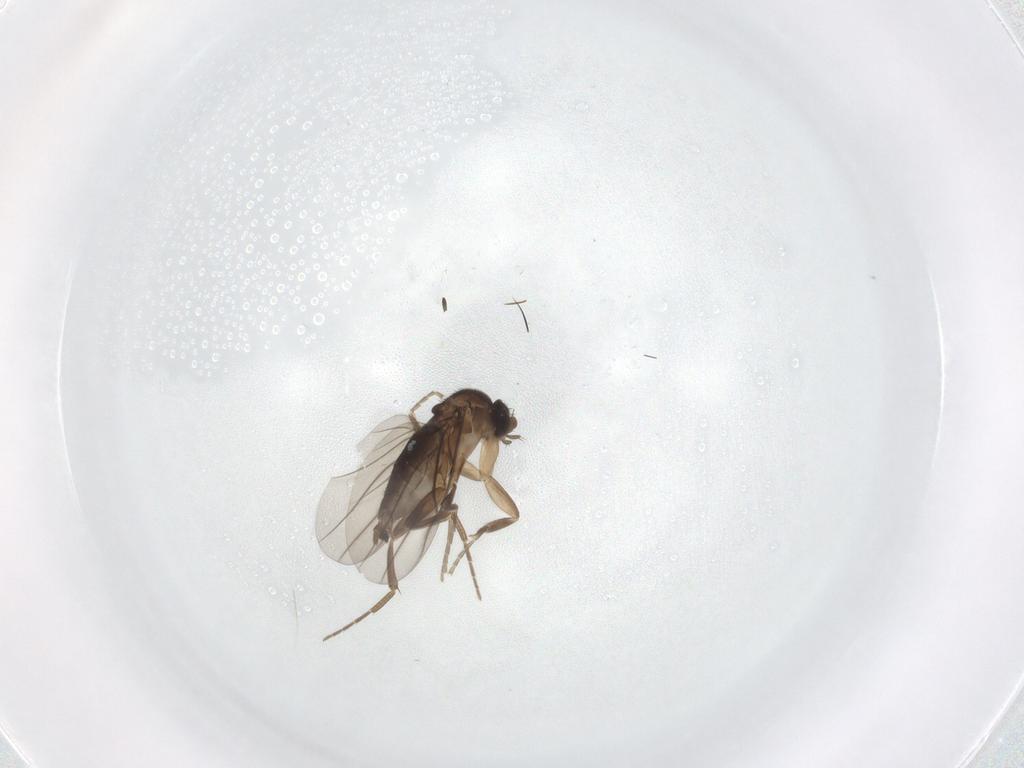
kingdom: Animalia
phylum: Arthropoda
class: Insecta
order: Diptera
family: Phoridae
